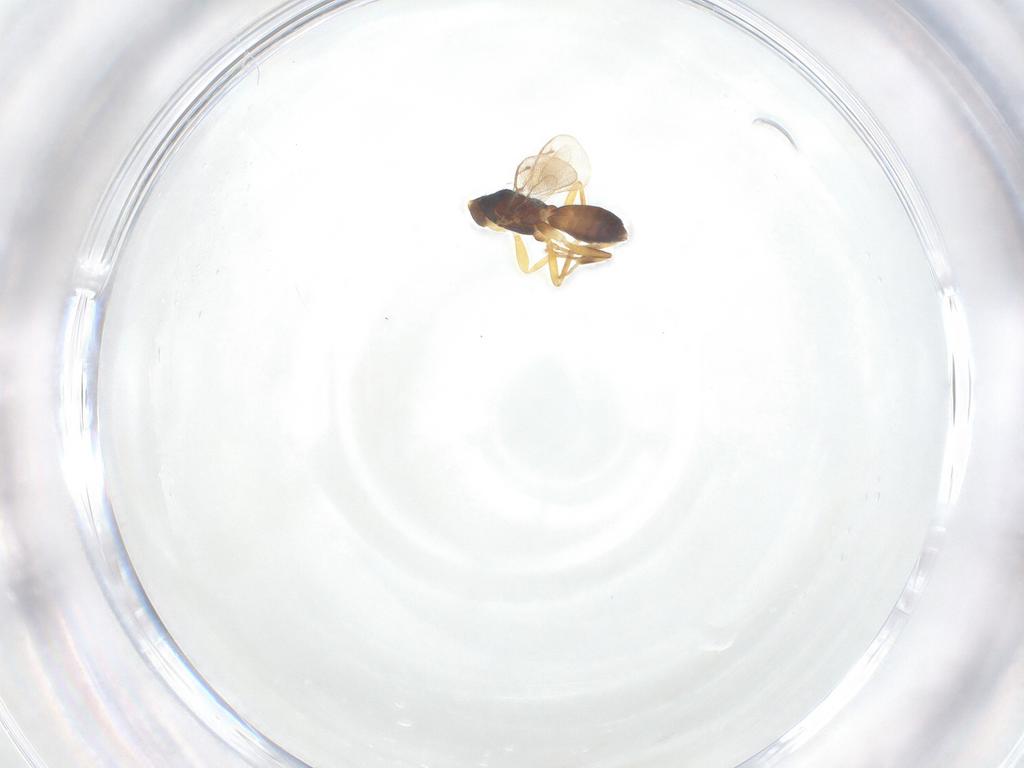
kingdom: Animalia
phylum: Arthropoda
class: Insecta
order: Hymenoptera
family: Eupelmidae
